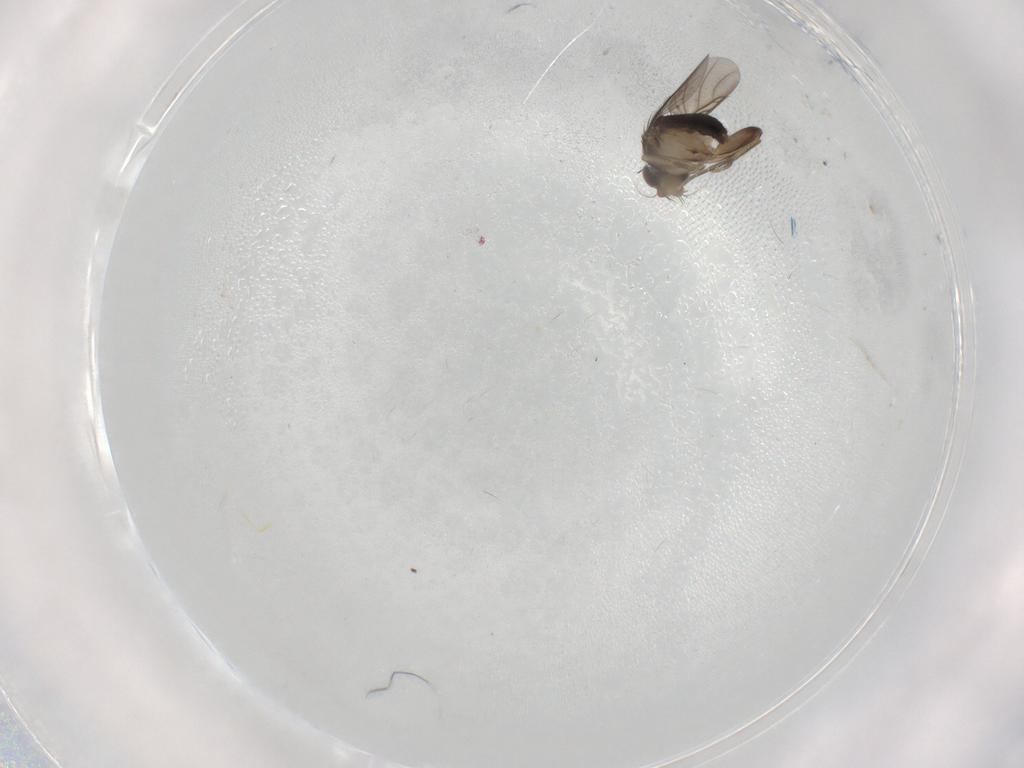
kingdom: Animalia
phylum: Arthropoda
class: Insecta
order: Diptera
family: Phoridae
